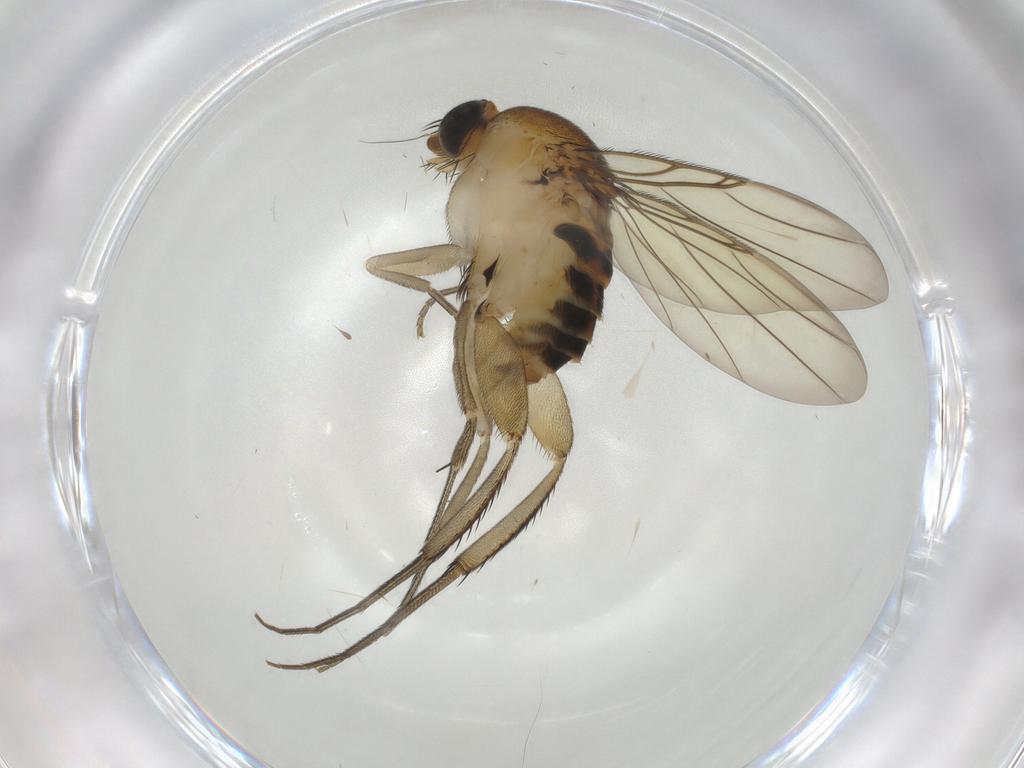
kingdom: Animalia
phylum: Arthropoda
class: Insecta
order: Diptera
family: Phoridae
